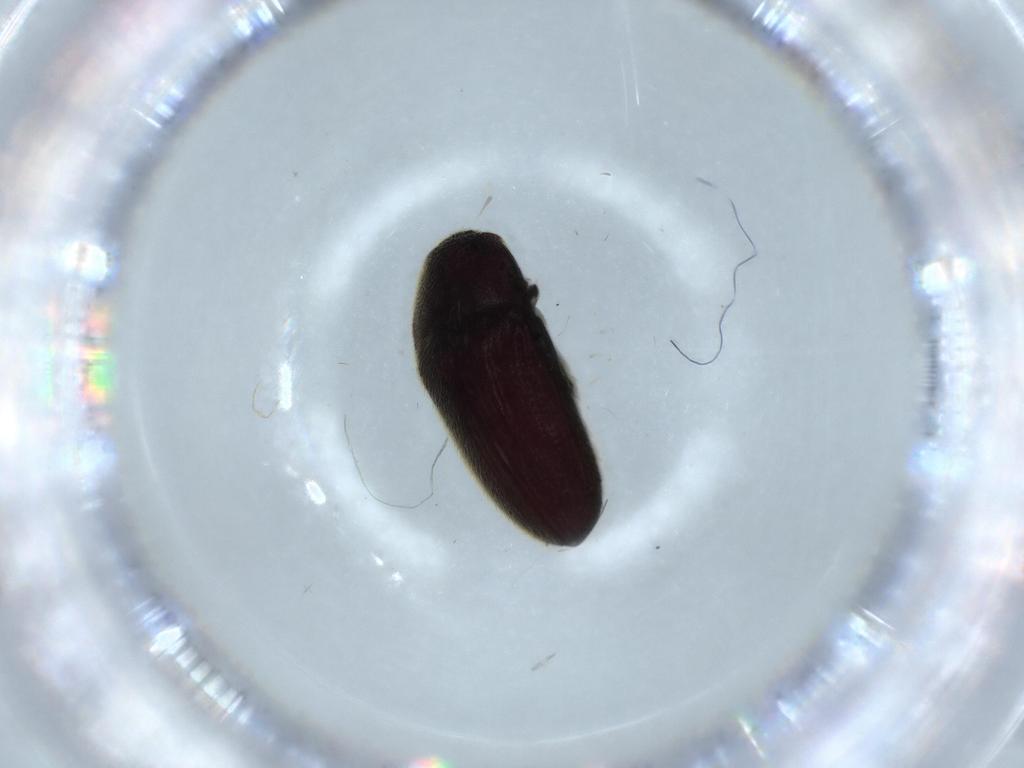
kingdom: Animalia
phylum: Arthropoda
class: Insecta
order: Coleoptera
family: Throscidae
